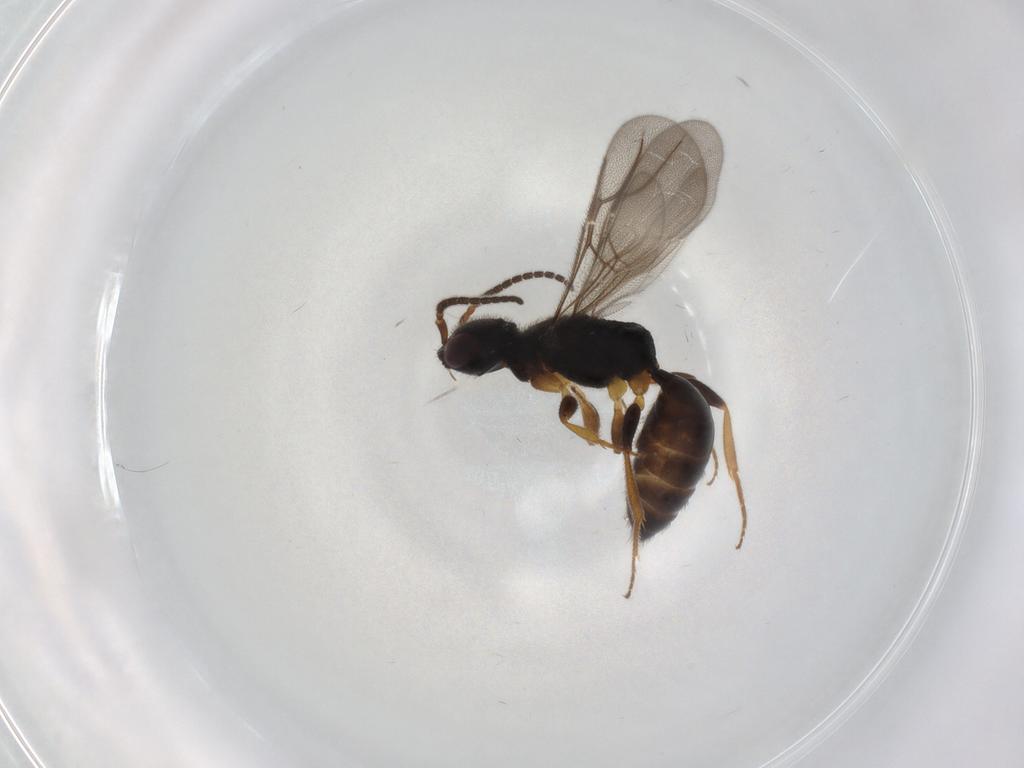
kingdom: Animalia
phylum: Arthropoda
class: Insecta
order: Hymenoptera
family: Bethylidae
